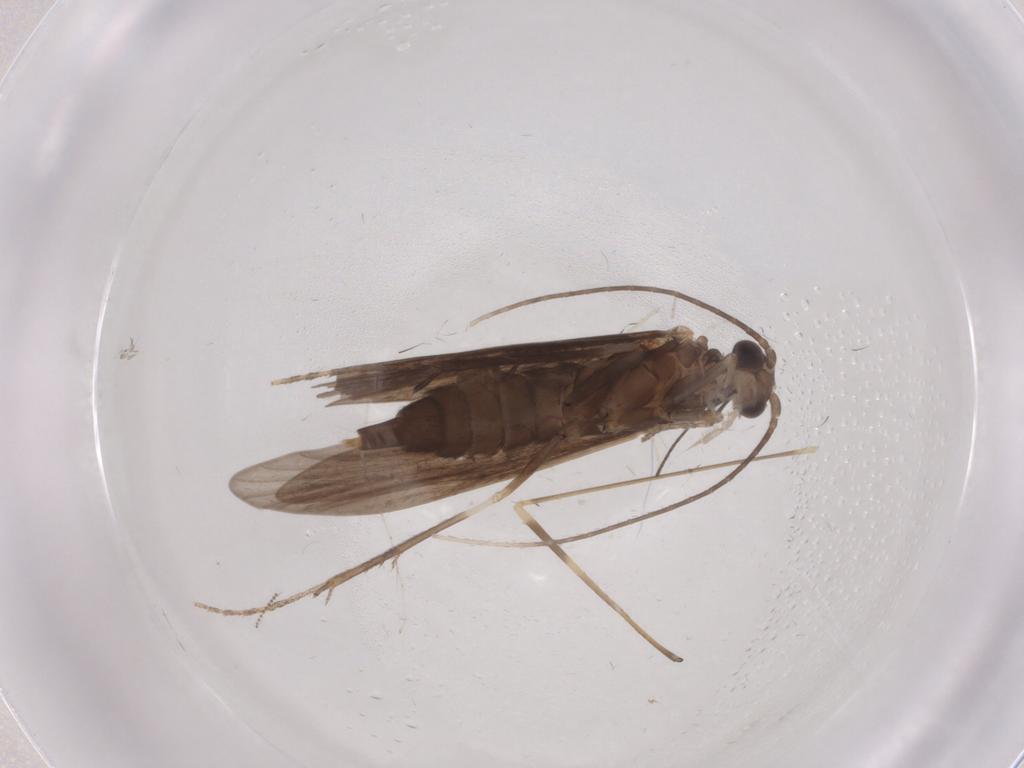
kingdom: Animalia
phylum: Arthropoda
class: Insecta
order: Trichoptera
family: Xiphocentronidae
